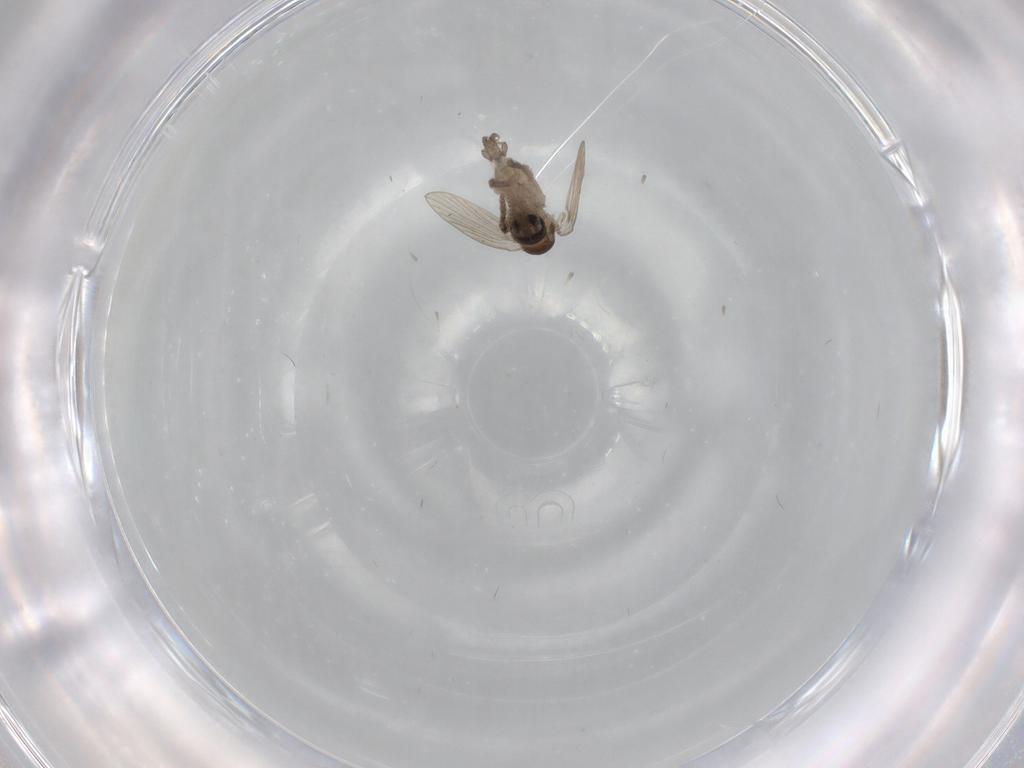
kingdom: Animalia
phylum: Arthropoda
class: Insecta
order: Diptera
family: Psychodidae
